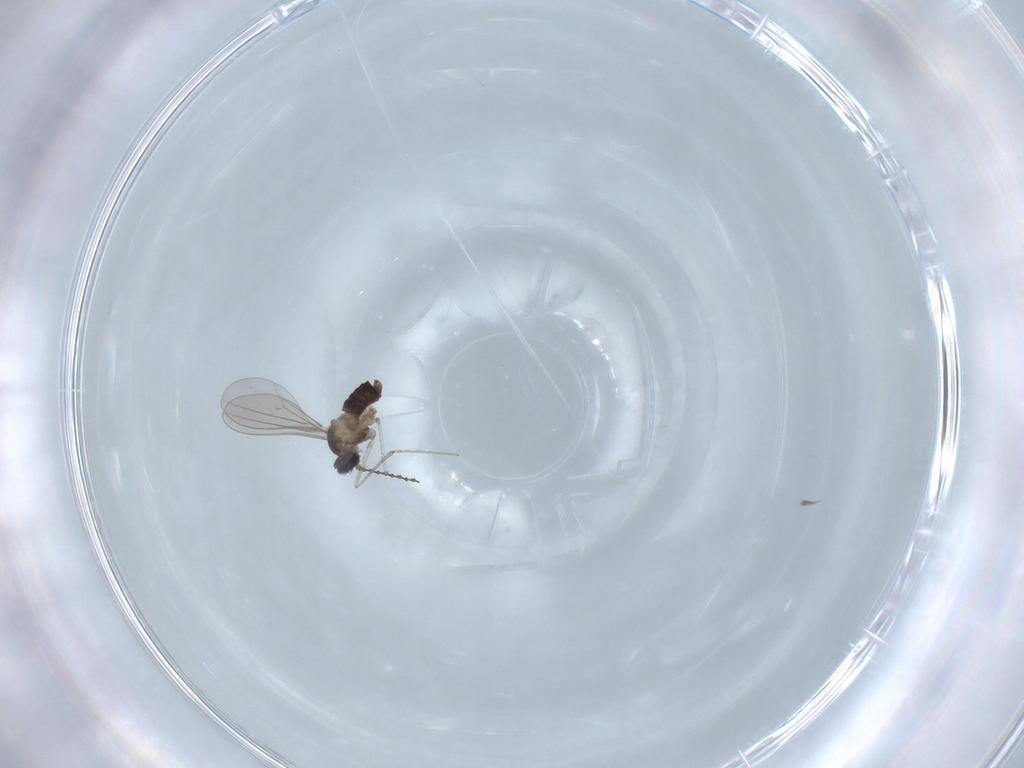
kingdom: Animalia
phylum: Arthropoda
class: Insecta
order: Diptera
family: Cecidomyiidae
